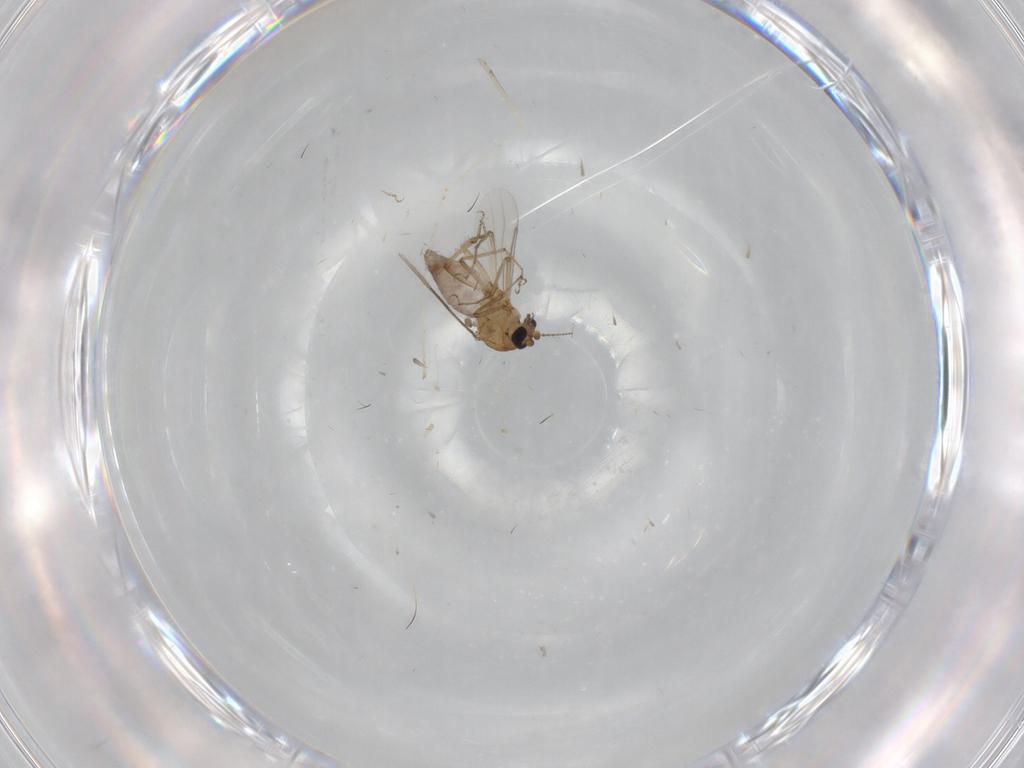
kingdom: Animalia
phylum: Arthropoda
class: Insecta
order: Diptera
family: Ceratopogonidae
